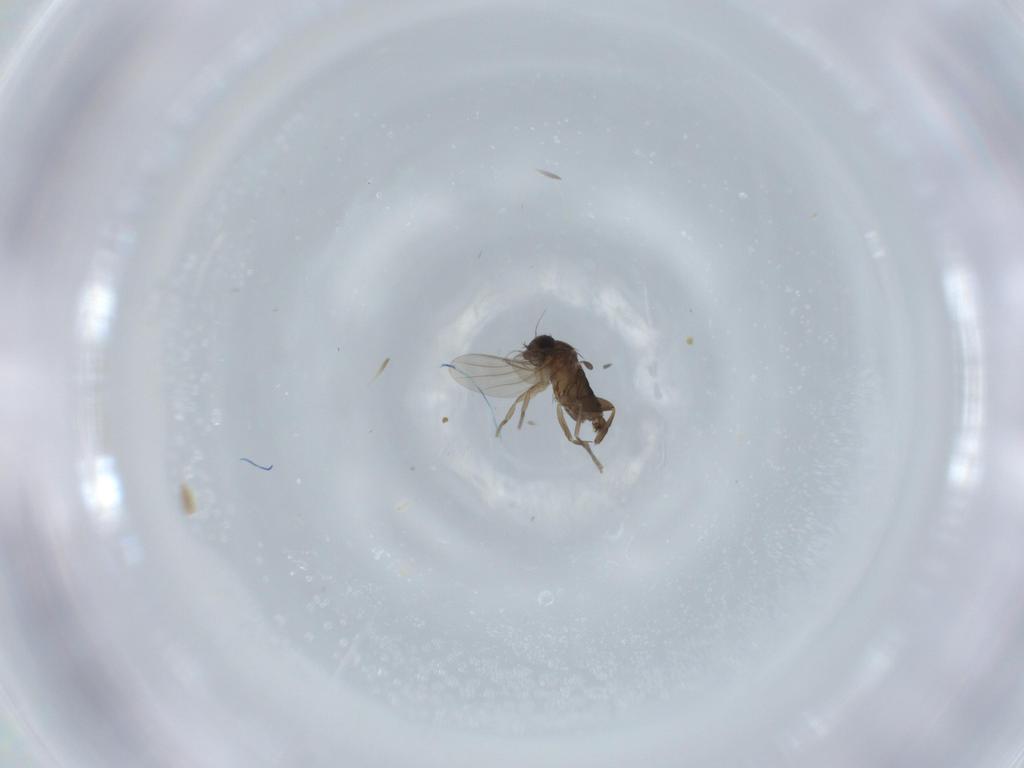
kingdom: Animalia
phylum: Arthropoda
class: Insecta
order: Diptera
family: Phoridae
